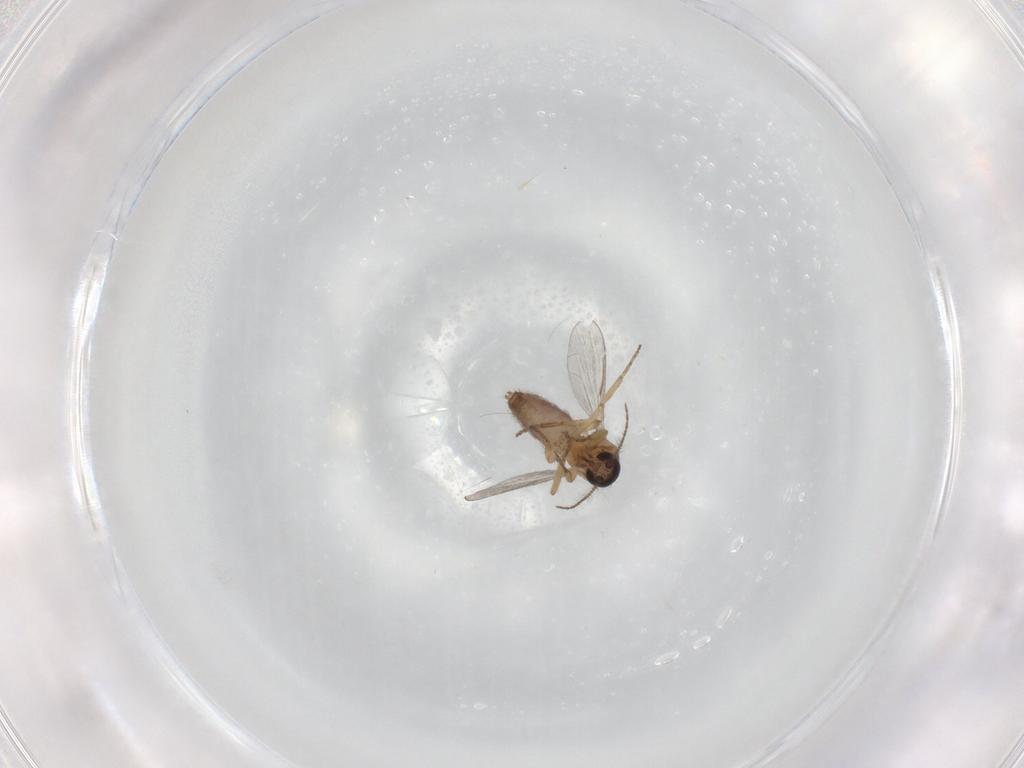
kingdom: Animalia
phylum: Arthropoda
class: Insecta
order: Diptera
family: Ceratopogonidae
